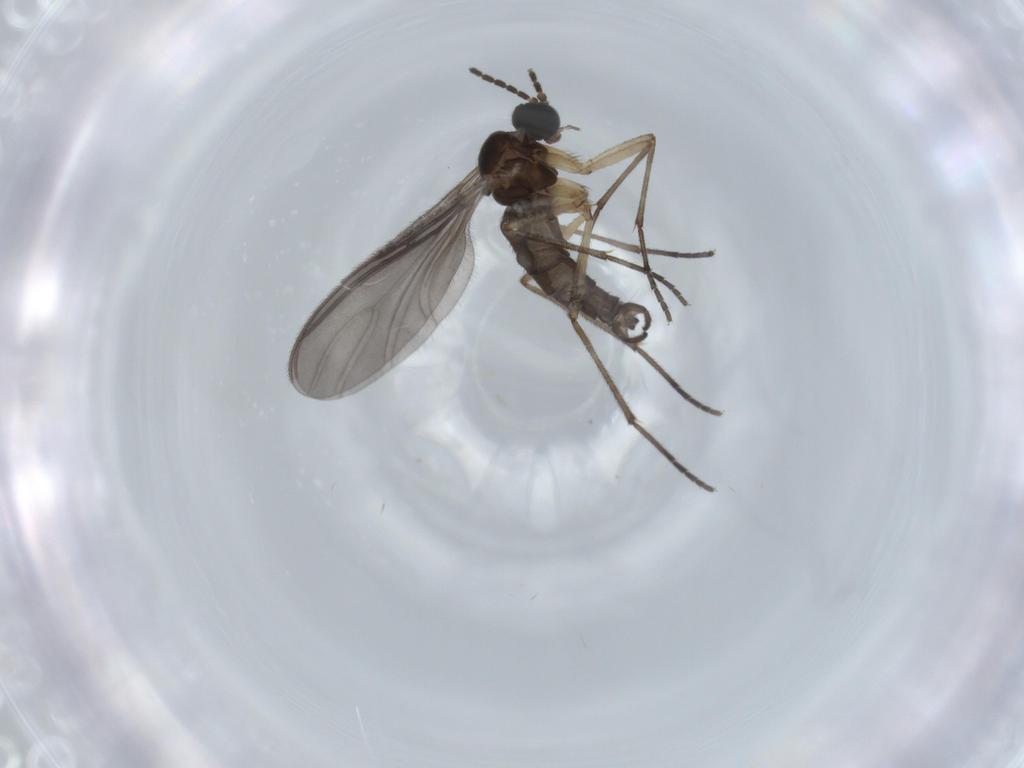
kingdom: Animalia
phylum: Arthropoda
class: Insecta
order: Diptera
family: Sciaridae
